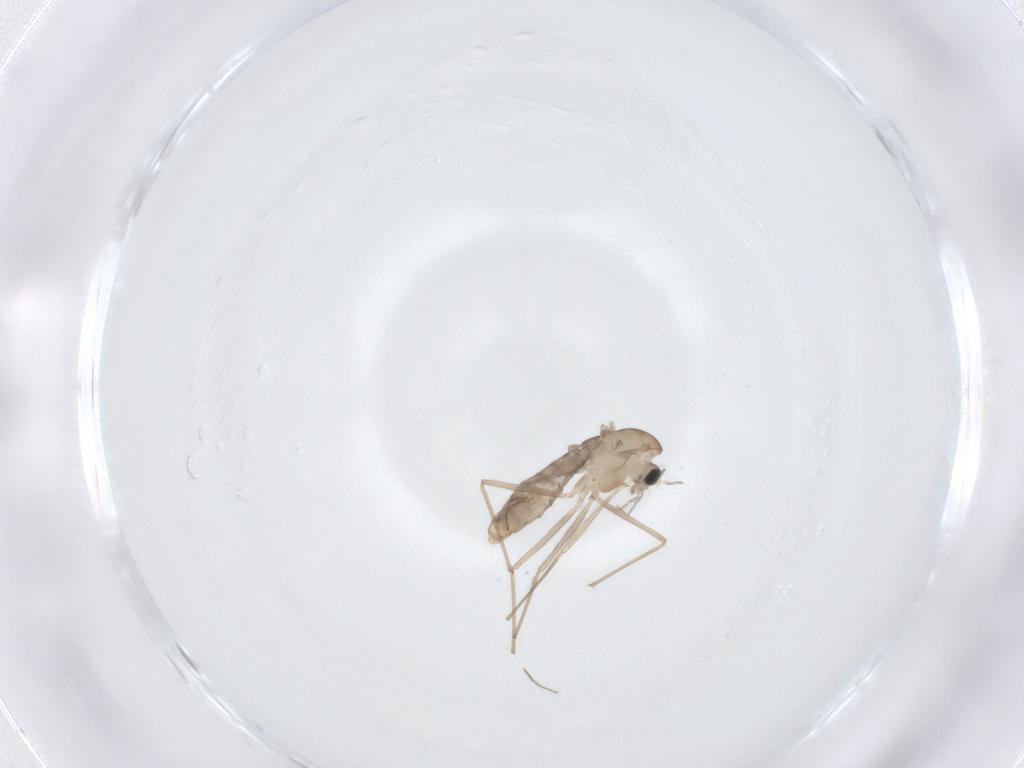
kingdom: Animalia
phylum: Arthropoda
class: Insecta
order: Diptera
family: Chironomidae
